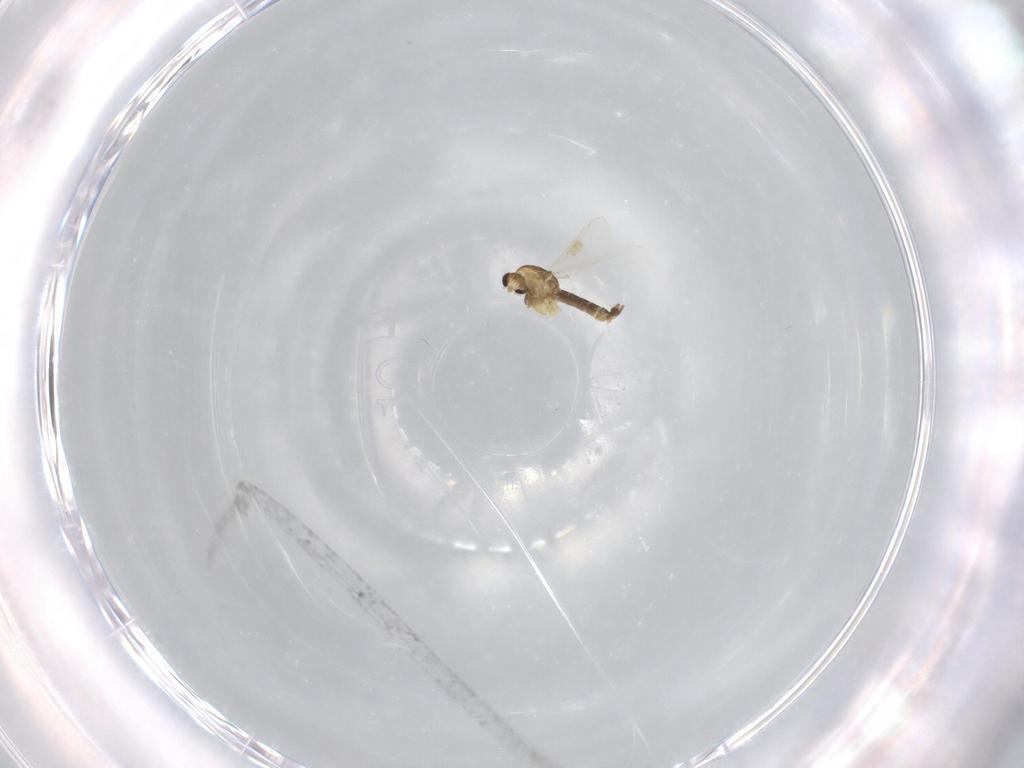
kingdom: Animalia
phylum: Arthropoda
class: Insecta
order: Diptera
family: Chironomidae
